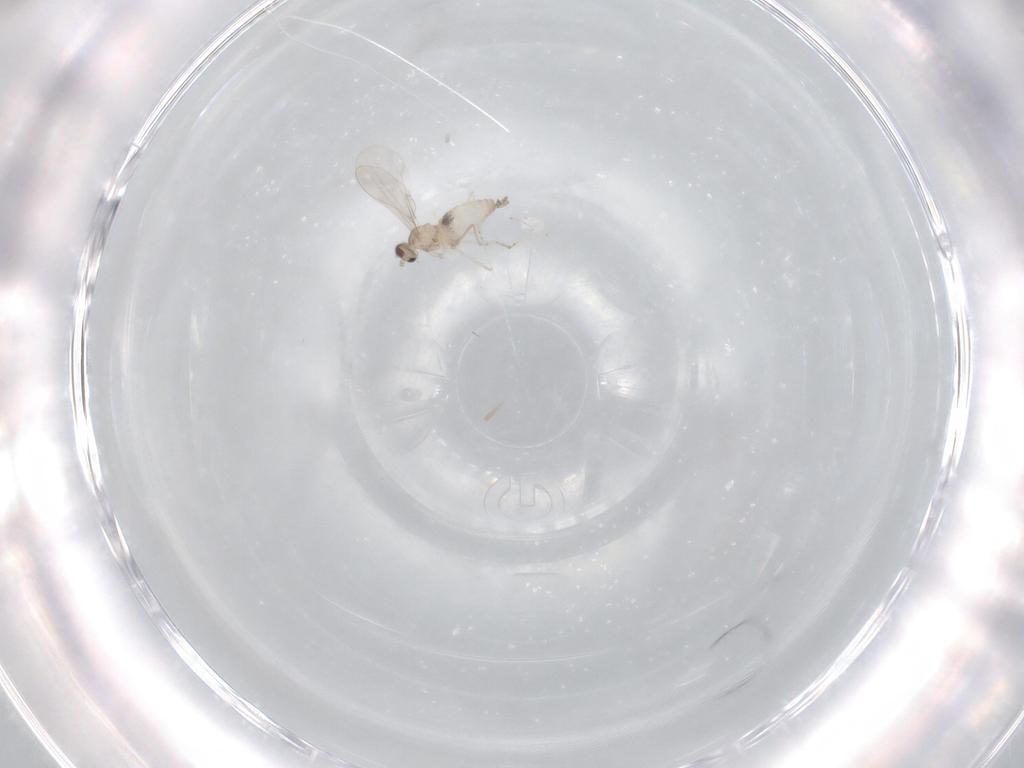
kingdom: Animalia
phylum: Arthropoda
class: Insecta
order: Diptera
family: Cecidomyiidae
